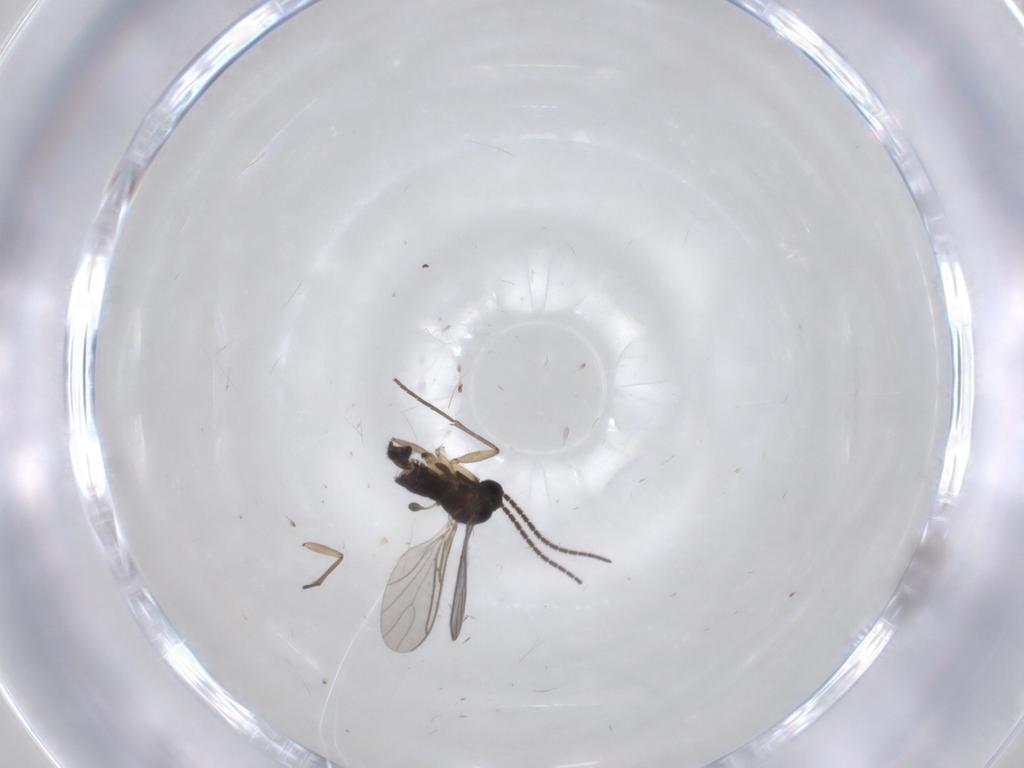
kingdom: Animalia
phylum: Arthropoda
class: Insecta
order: Diptera
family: Sciaridae
